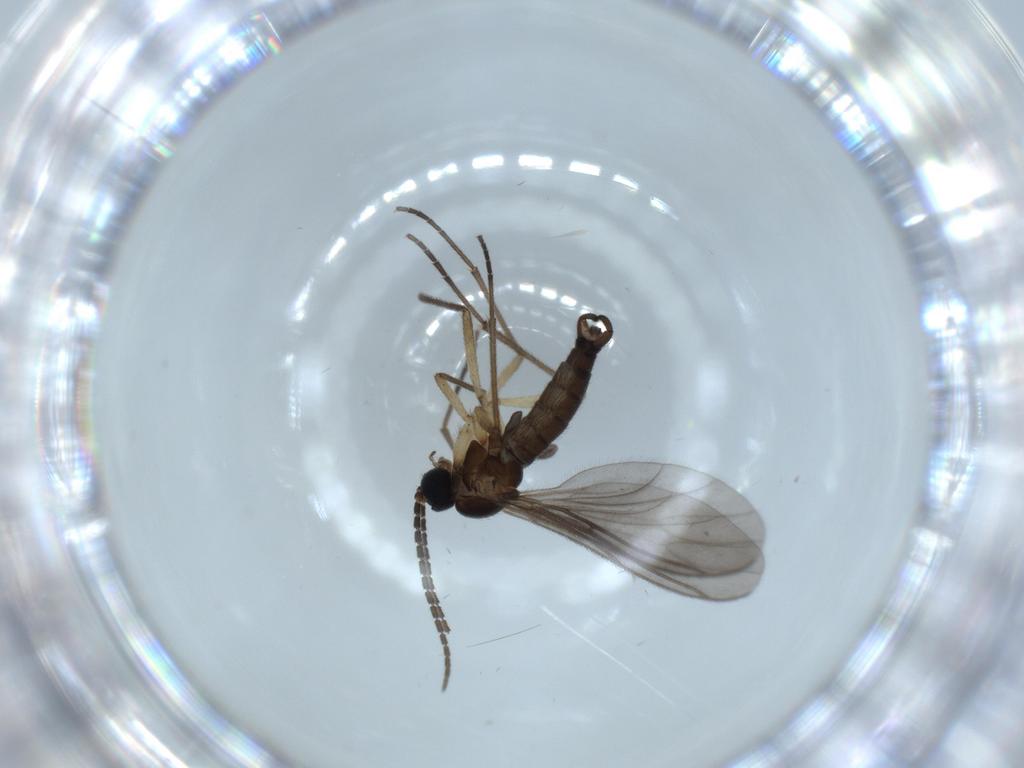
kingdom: Animalia
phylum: Arthropoda
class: Insecta
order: Diptera
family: Sciaridae
